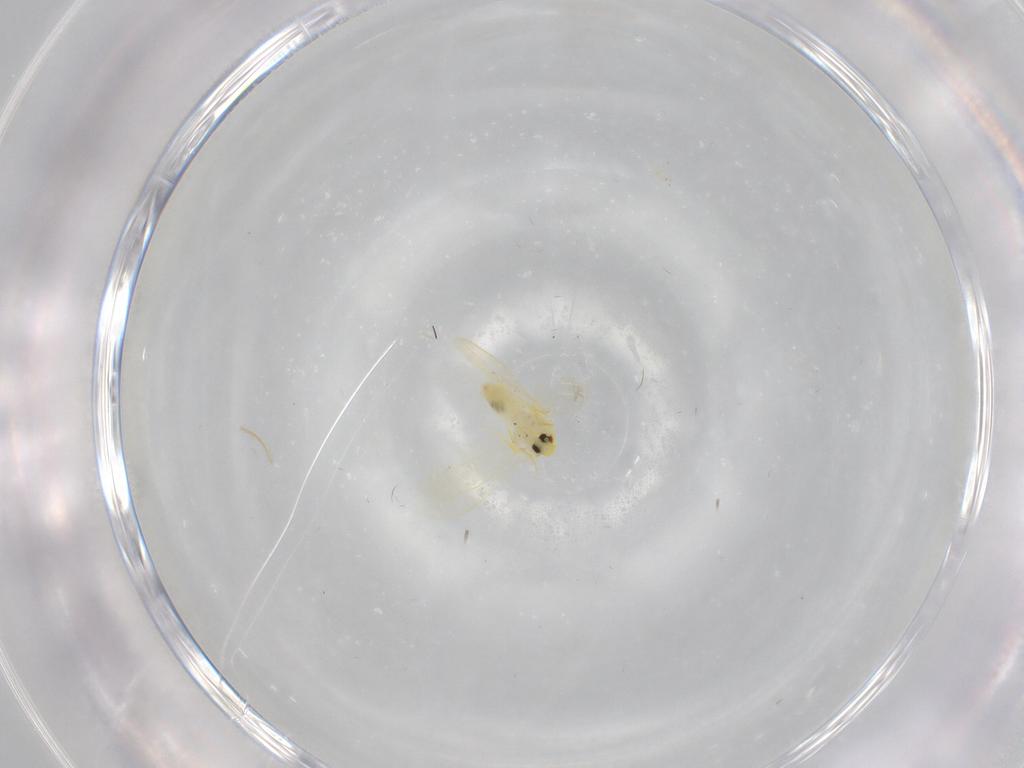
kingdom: Animalia
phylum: Arthropoda
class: Insecta
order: Hemiptera
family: Aleyrodidae
